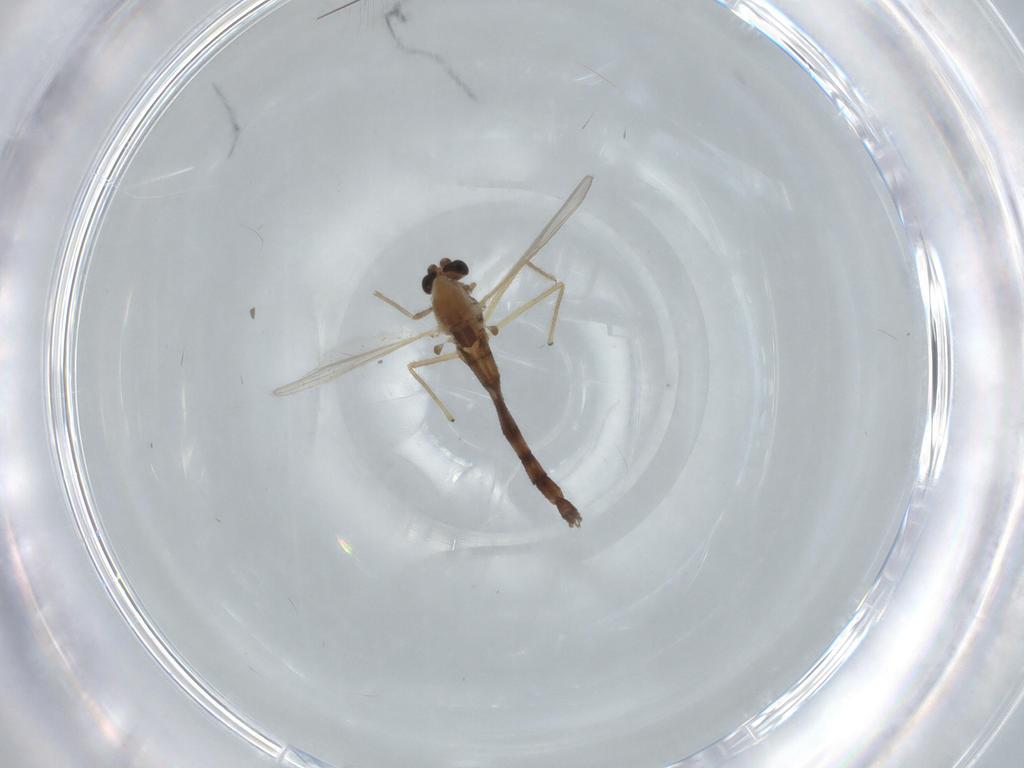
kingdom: Animalia
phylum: Arthropoda
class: Insecta
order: Diptera
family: Chironomidae
